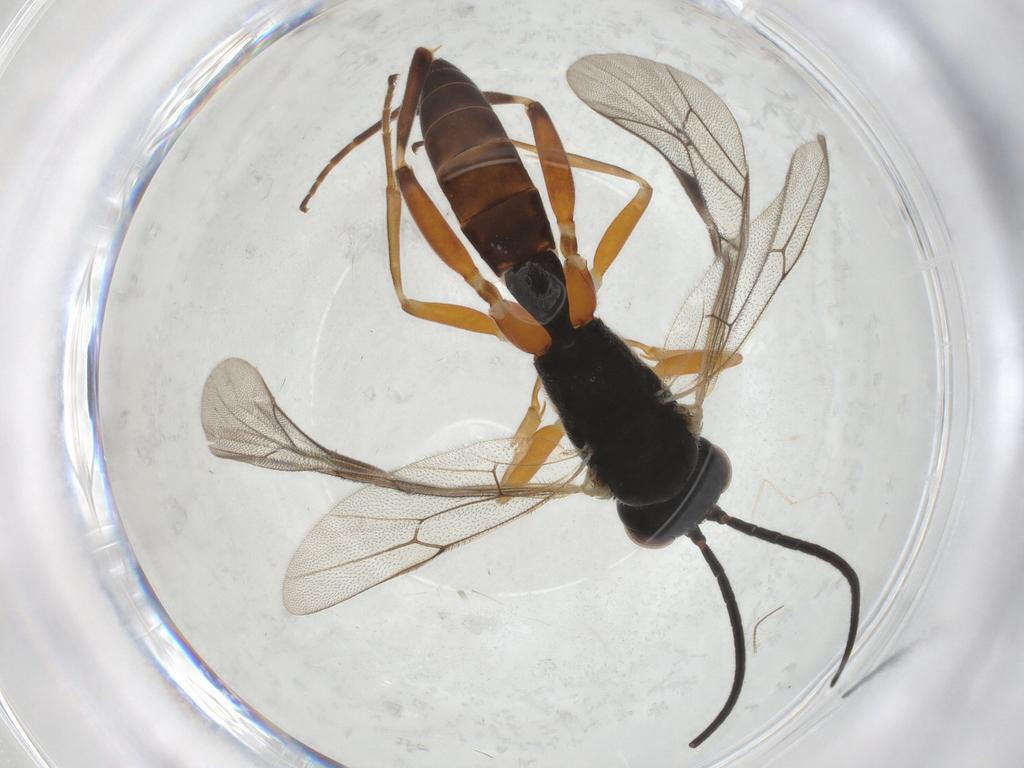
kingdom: Animalia
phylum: Arthropoda
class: Insecta
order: Hymenoptera
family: Ichneumonidae
